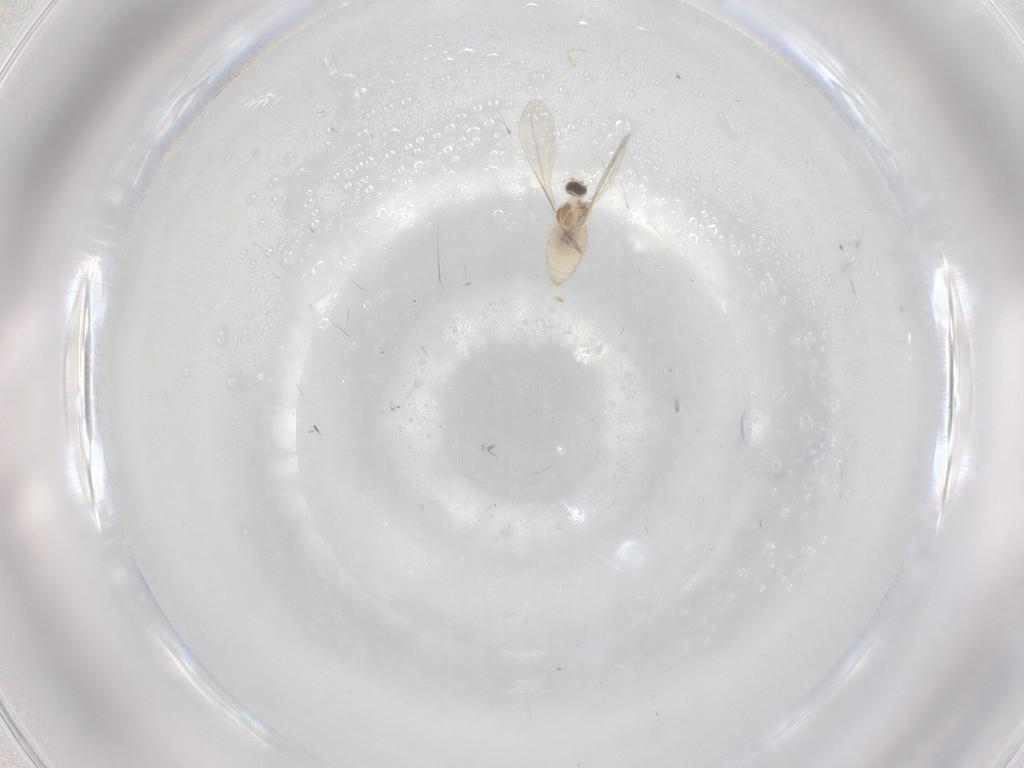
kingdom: Animalia
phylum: Arthropoda
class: Insecta
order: Diptera
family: Cecidomyiidae
